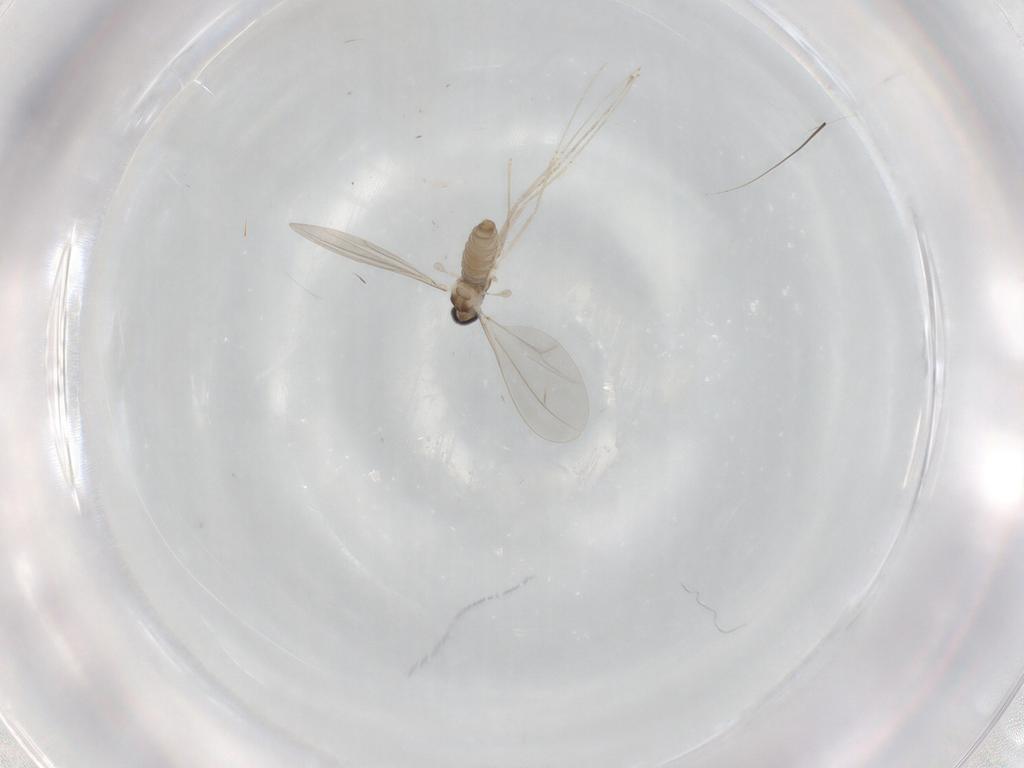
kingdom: Animalia
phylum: Arthropoda
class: Insecta
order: Diptera
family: Cecidomyiidae
